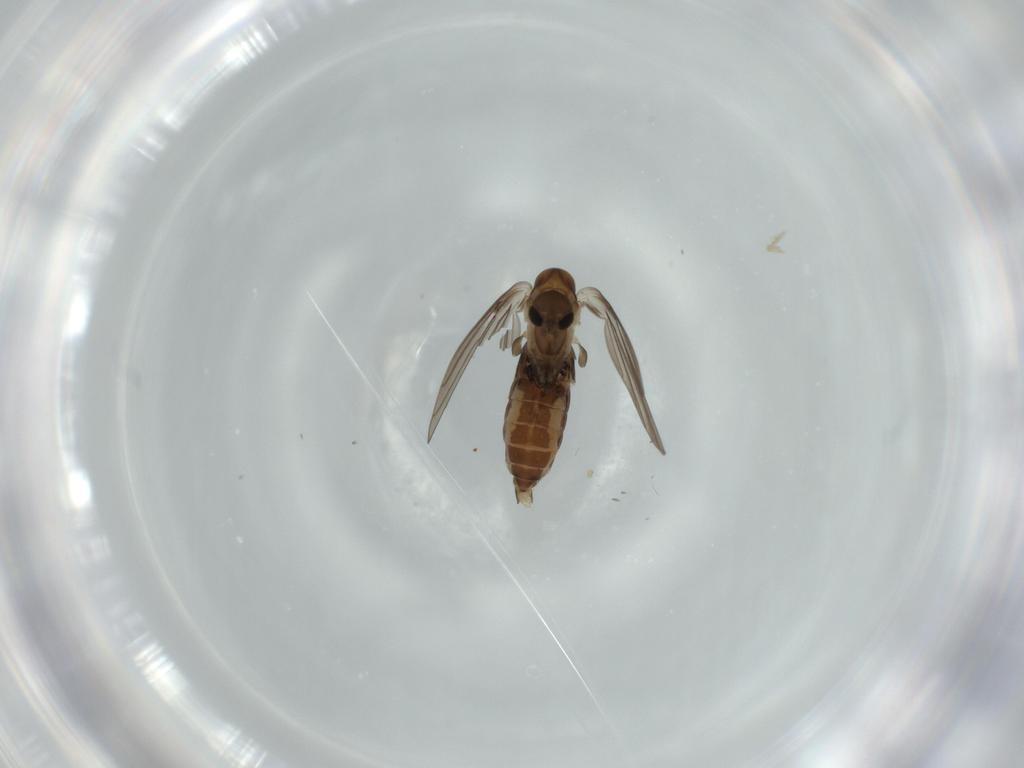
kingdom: Animalia
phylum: Arthropoda
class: Insecta
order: Diptera
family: Psychodidae
